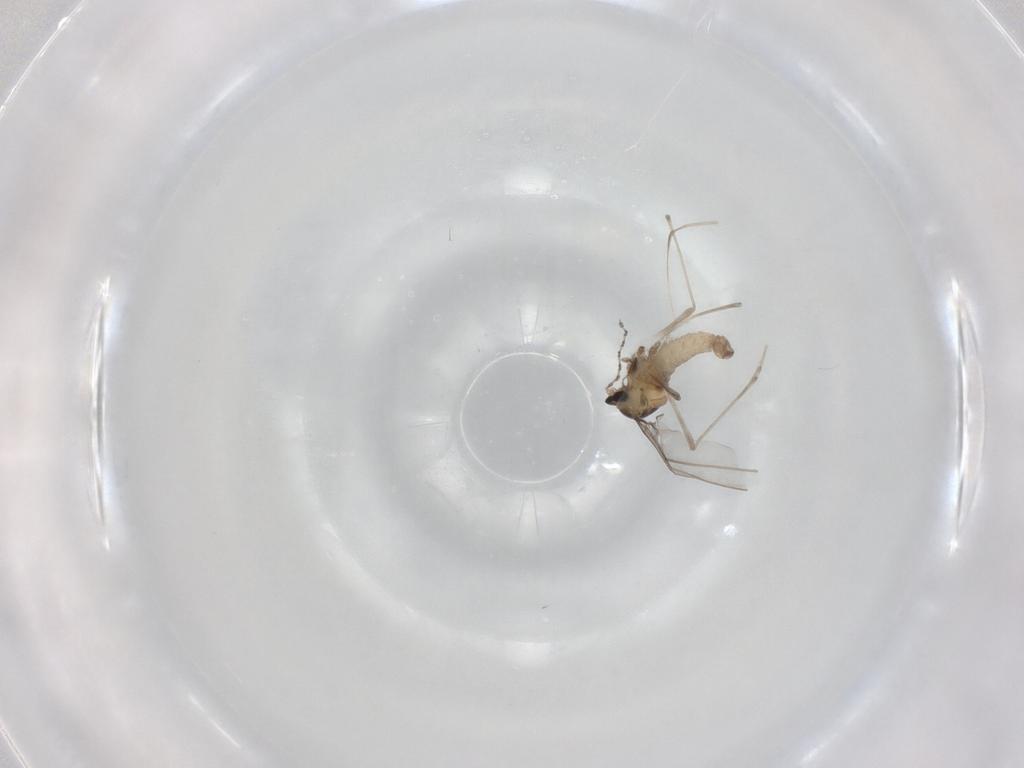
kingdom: Animalia
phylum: Arthropoda
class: Insecta
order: Diptera
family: Cecidomyiidae
